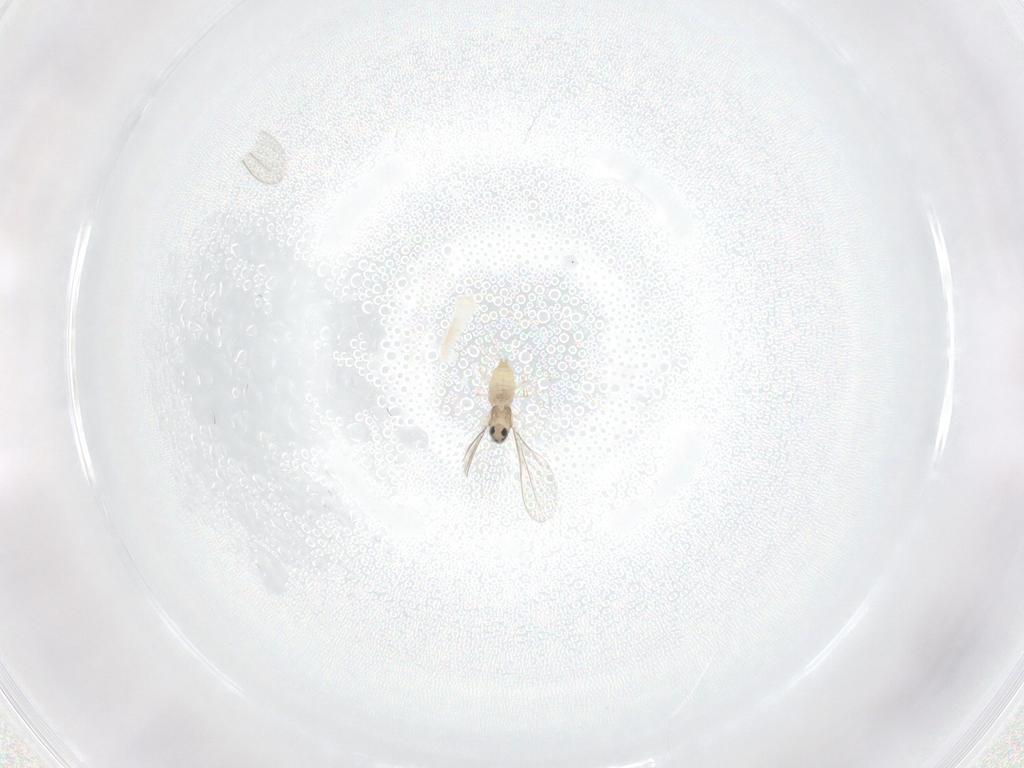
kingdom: Animalia
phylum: Arthropoda
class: Insecta
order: Diptera
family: Cecidomyiidae
